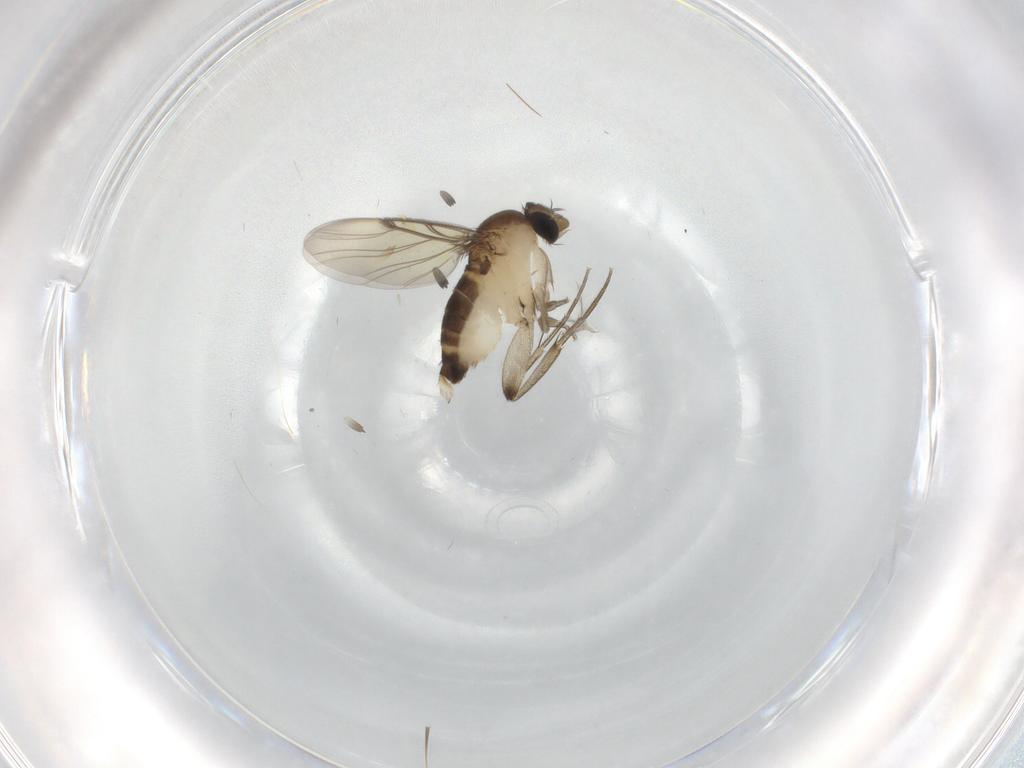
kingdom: Animalia
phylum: Arthropoda
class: Insecta
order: Diptera
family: Phoridae
